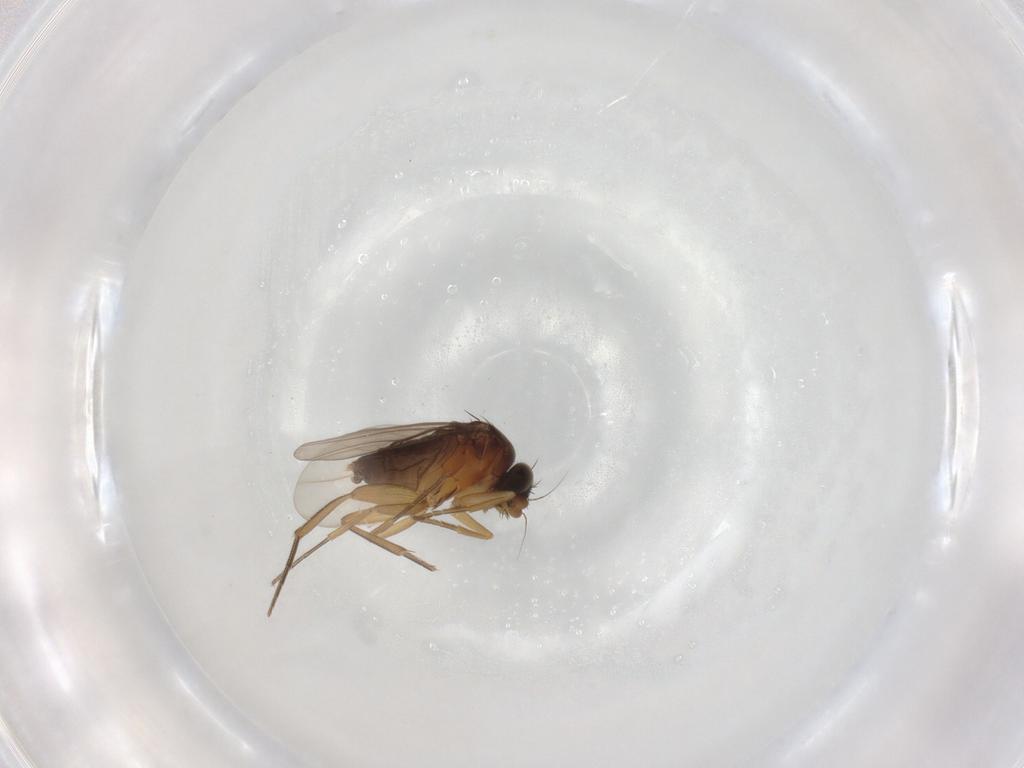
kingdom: Animalia
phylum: Arthropoda
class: Insecta
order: Diptera
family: Phoridae
